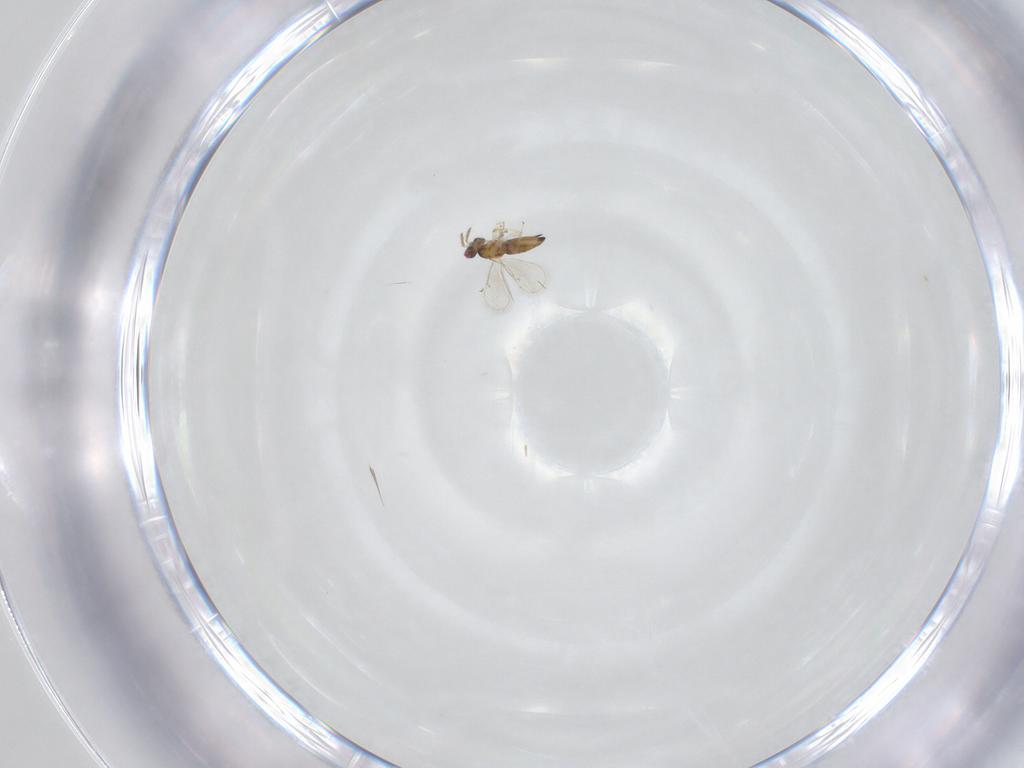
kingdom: Animalia
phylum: Arthropoda
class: Insecta
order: Hymenoptera
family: Eulophidae
